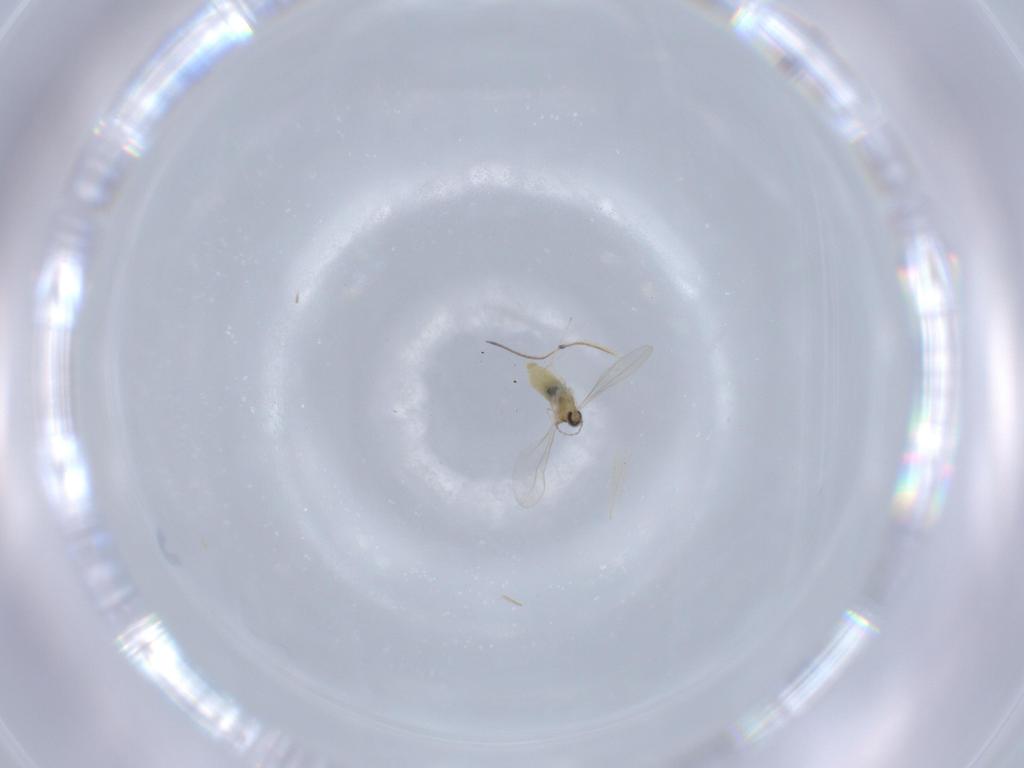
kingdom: Animalia
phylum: Arthropoda
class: Insecta
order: Diptera
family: Cecidomyiidae
